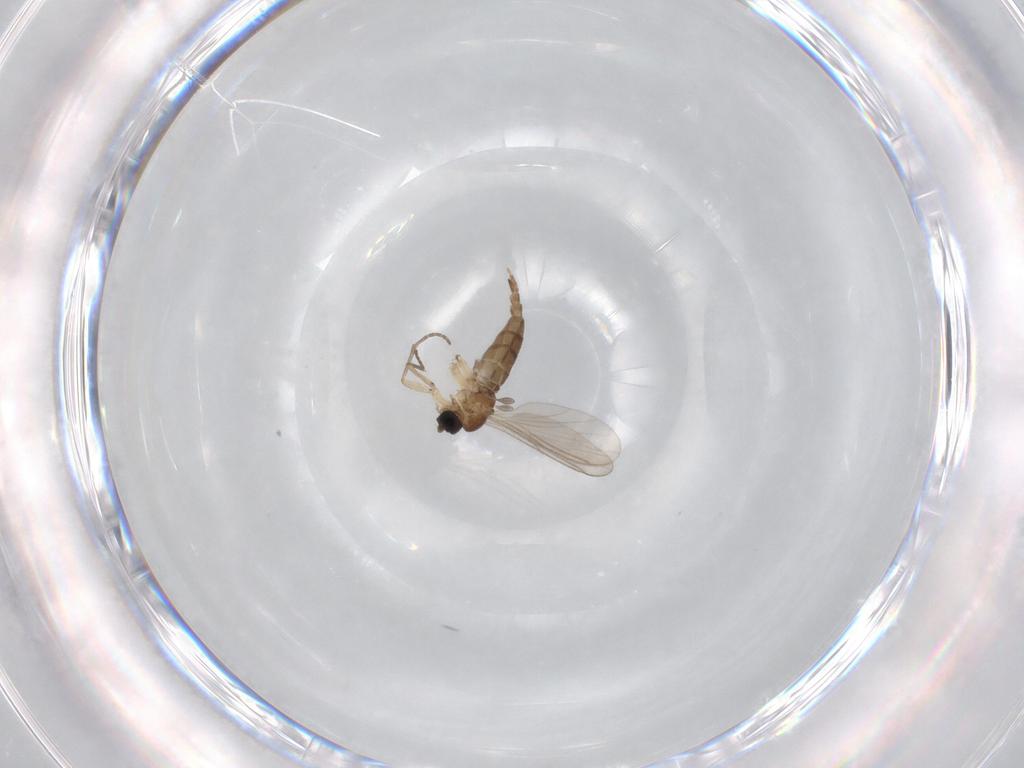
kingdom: Animalia
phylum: Arthropoda
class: Insecta
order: Diptera
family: Sciaridae
